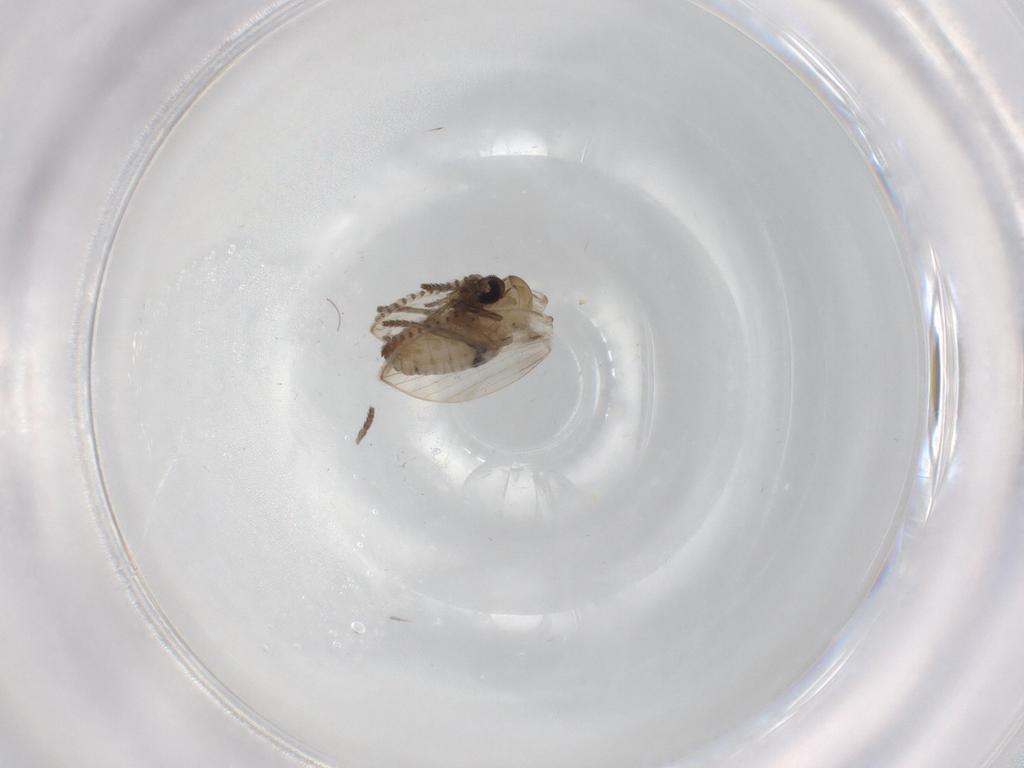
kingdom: Animalia
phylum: Arthropoda
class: Insecta
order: Diptera
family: Psychodidae
